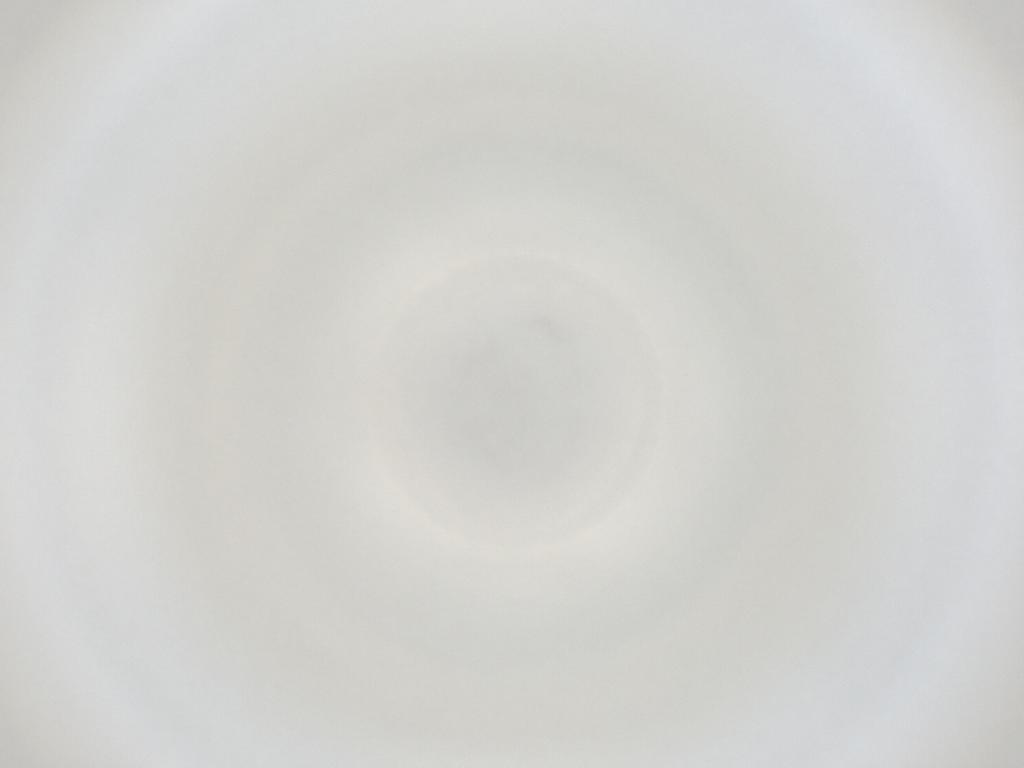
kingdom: Animalia
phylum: Arthropoda
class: Insecta
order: Diptera
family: Cecidomyiidae
